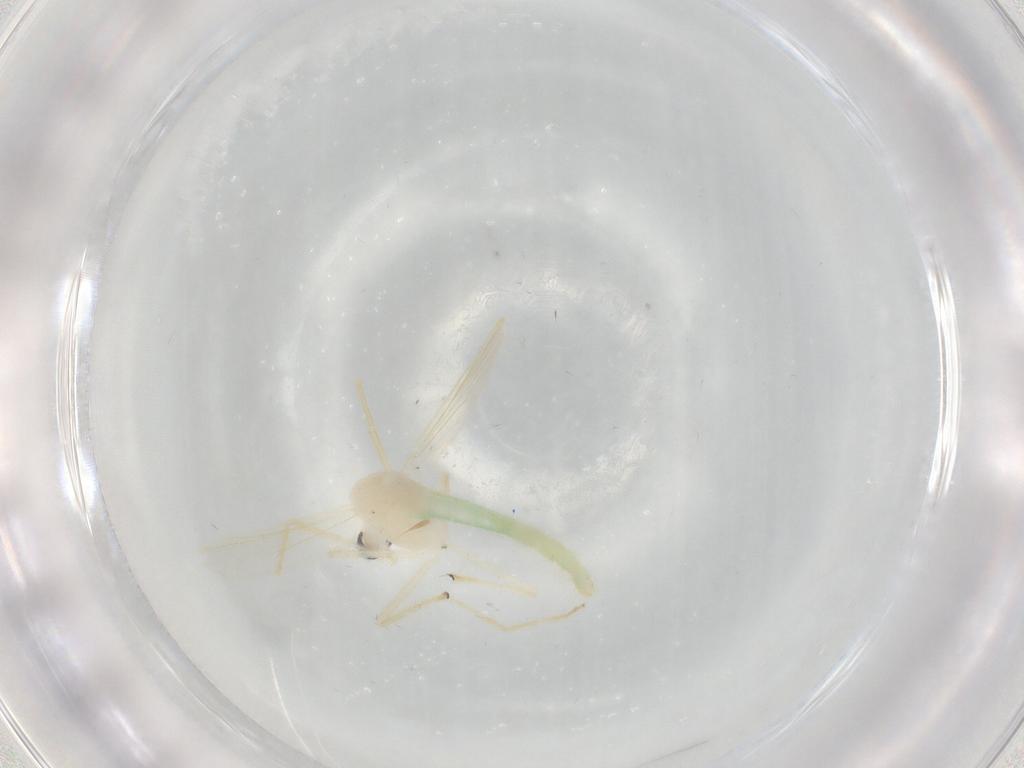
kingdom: Animalia
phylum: Arthropoda
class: Insecta
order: Diptera
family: Chironomidae
